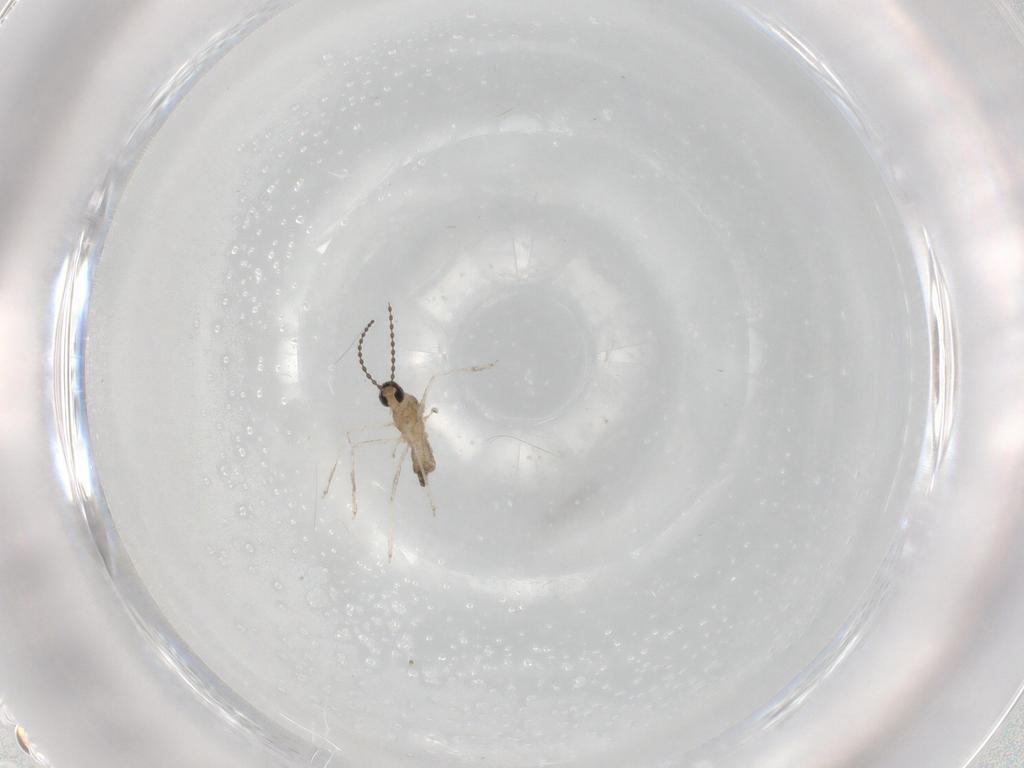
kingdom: Animalia
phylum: Arthropoda
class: Insecta
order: Diptera
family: Cecidomyiidae
